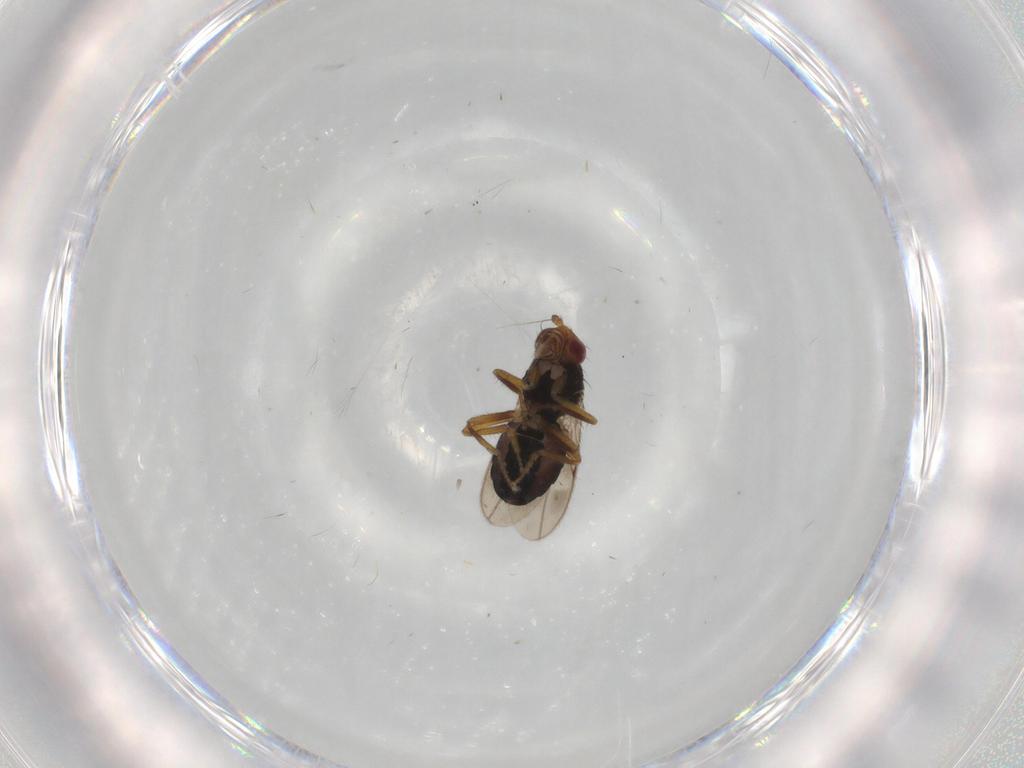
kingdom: Animalia
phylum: Arthropoda
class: Insecta
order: Diptera
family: Sphaeroceridae
